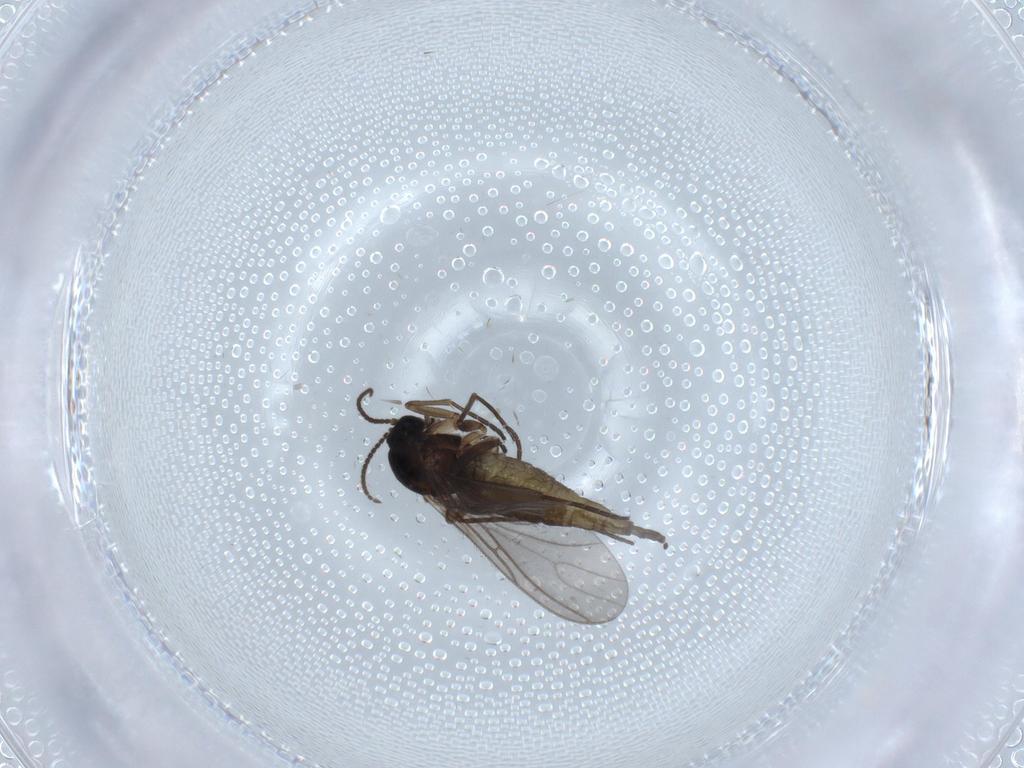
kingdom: Animalia
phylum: Arthropoda
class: Insecta
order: Diptera
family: Sciaridae
